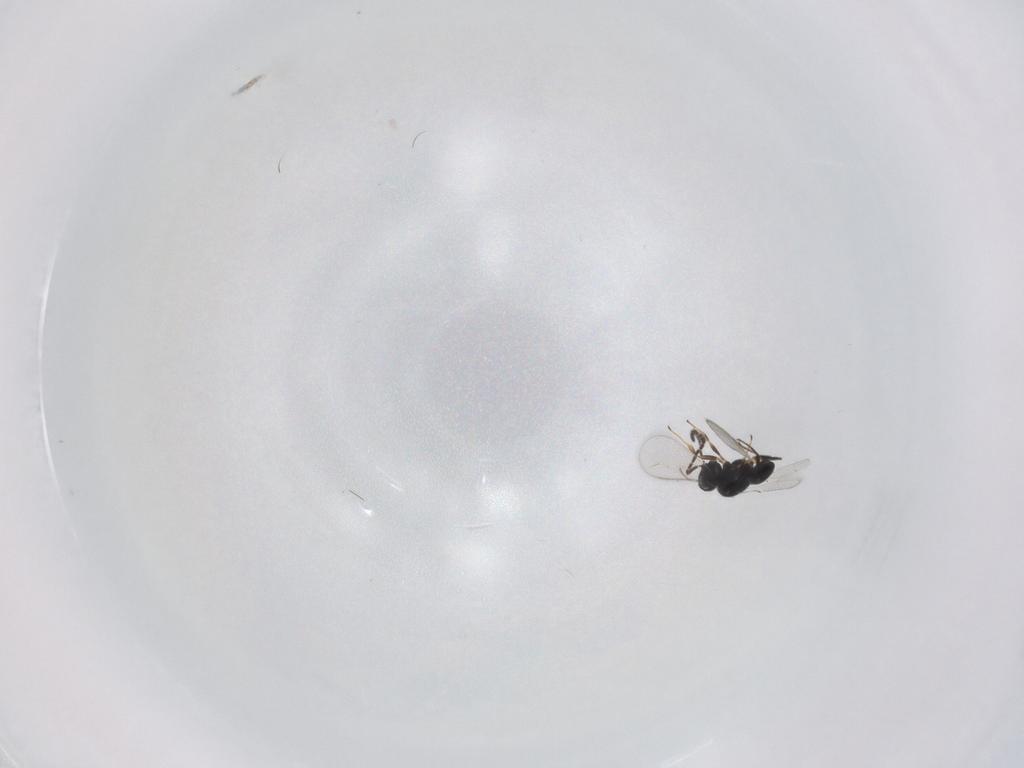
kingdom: Animalia
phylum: Arthropoda
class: Insecta
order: Hymenoptera
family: Scelionidae
